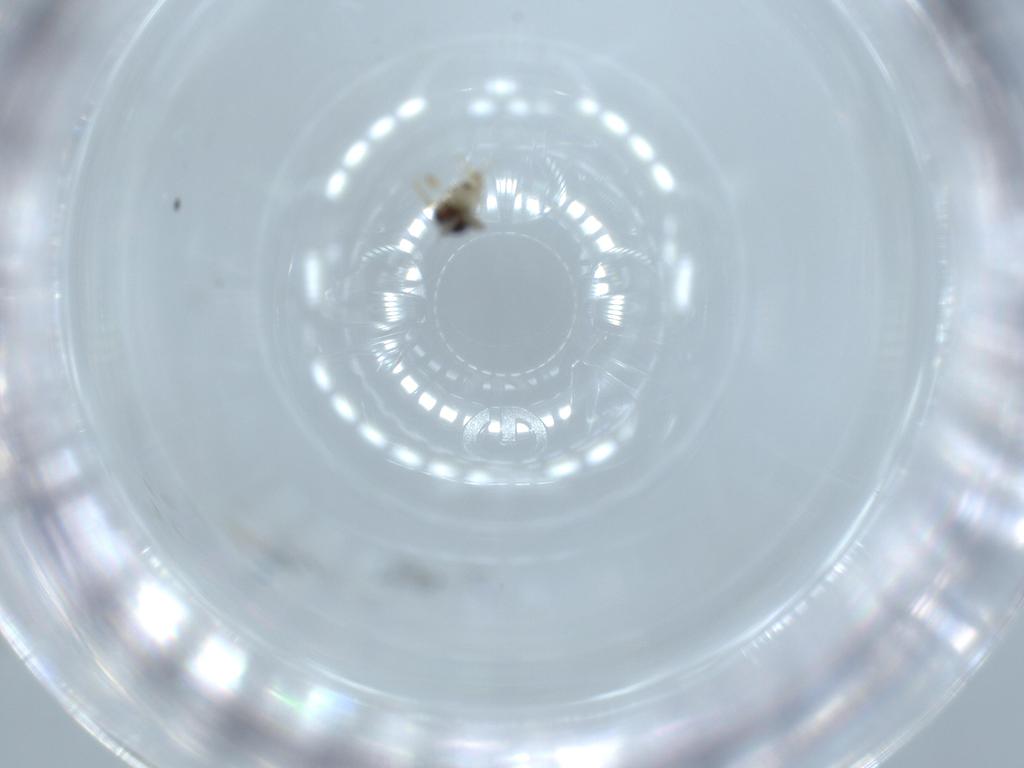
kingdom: Animalia
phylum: Arthropoda
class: Insecta
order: Hymenoptera
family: Scelionidae
